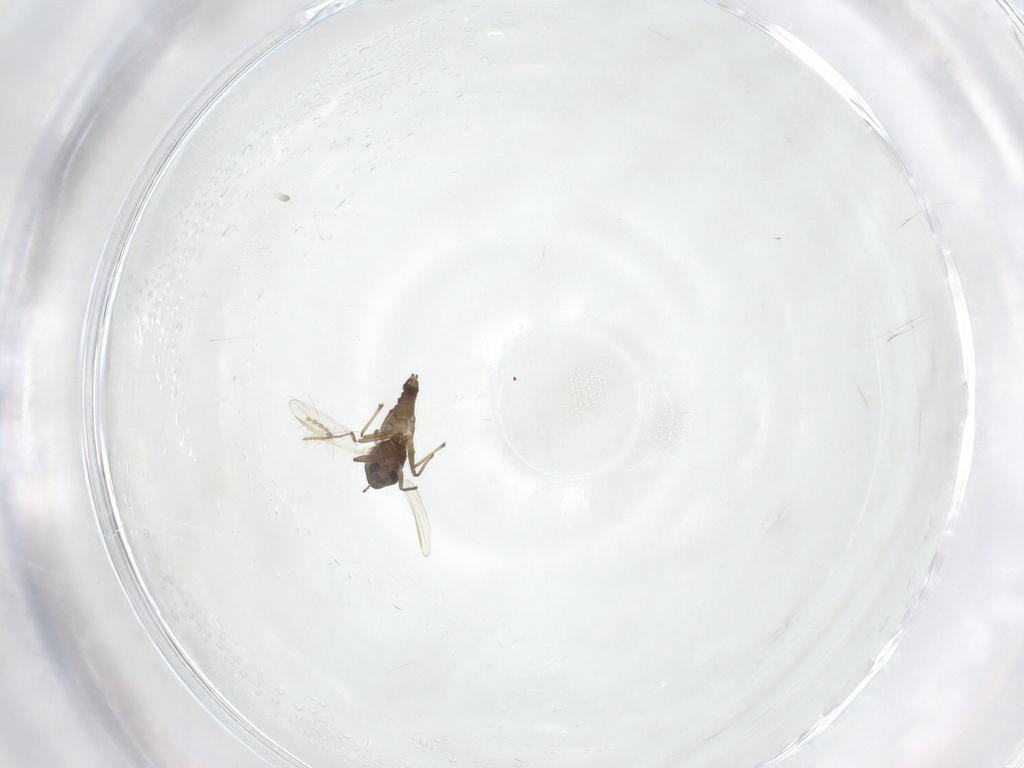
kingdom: Animalia
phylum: Arthropoda
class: Insecta
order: Diptera
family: Chironomidae
